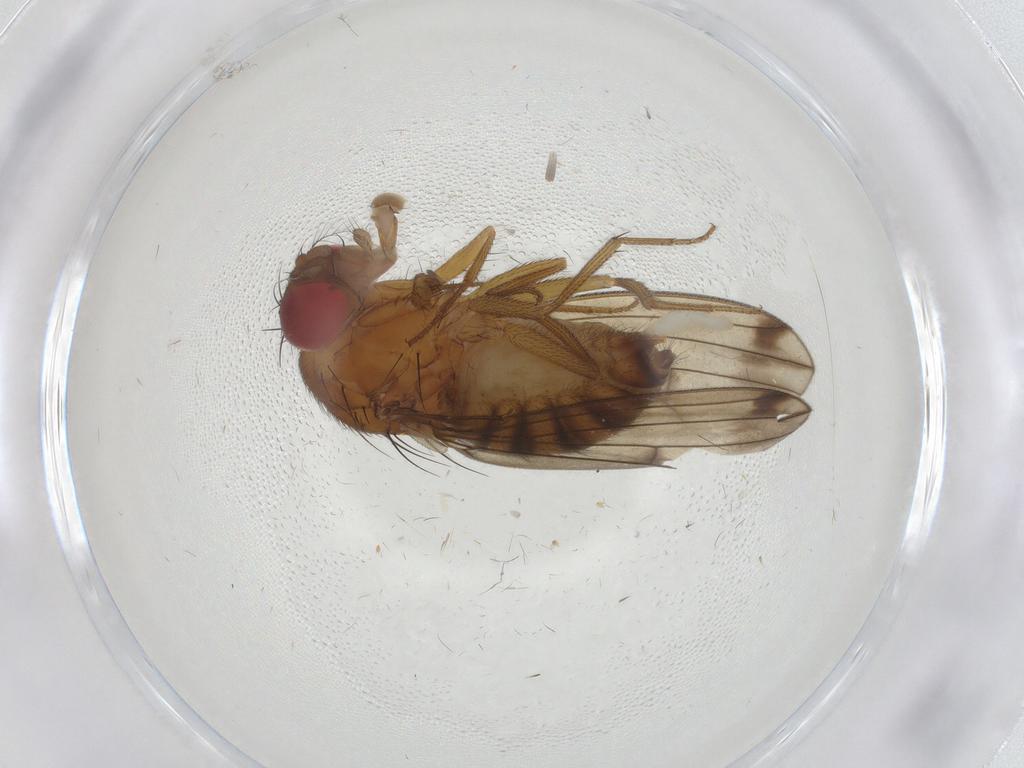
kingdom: Animalia
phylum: Arthropoda
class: Insecta
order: Diptera
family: Drosophilidae
